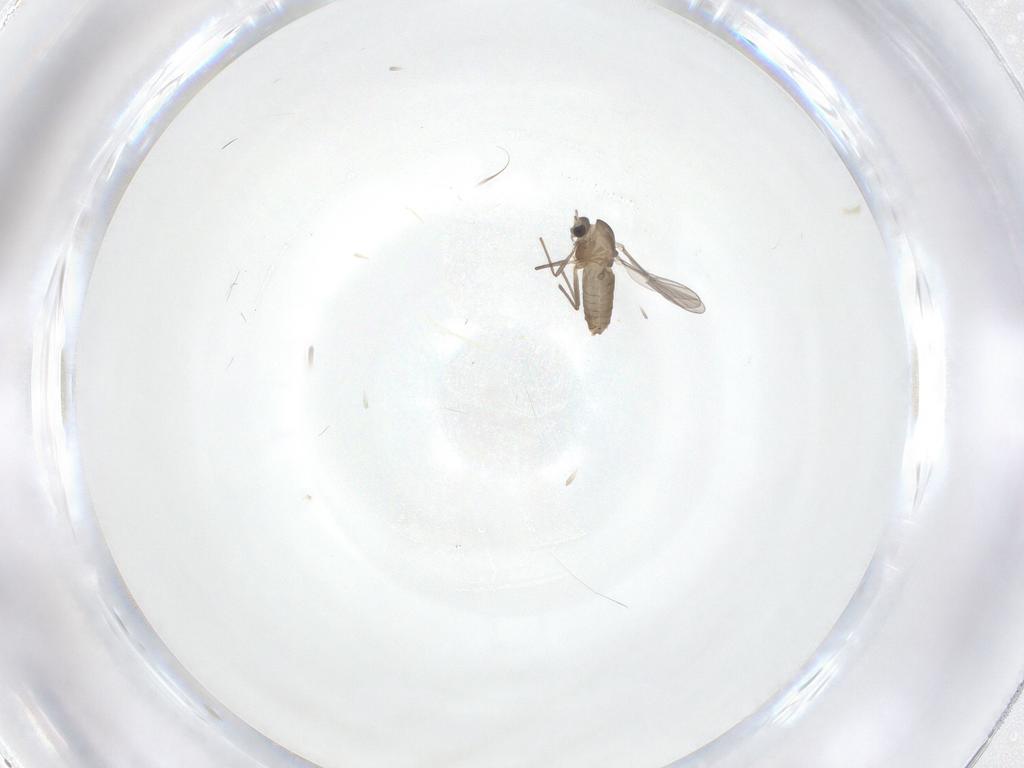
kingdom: Animalia
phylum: Arthropoda
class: Insecta
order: Diptera
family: Chironomidae
